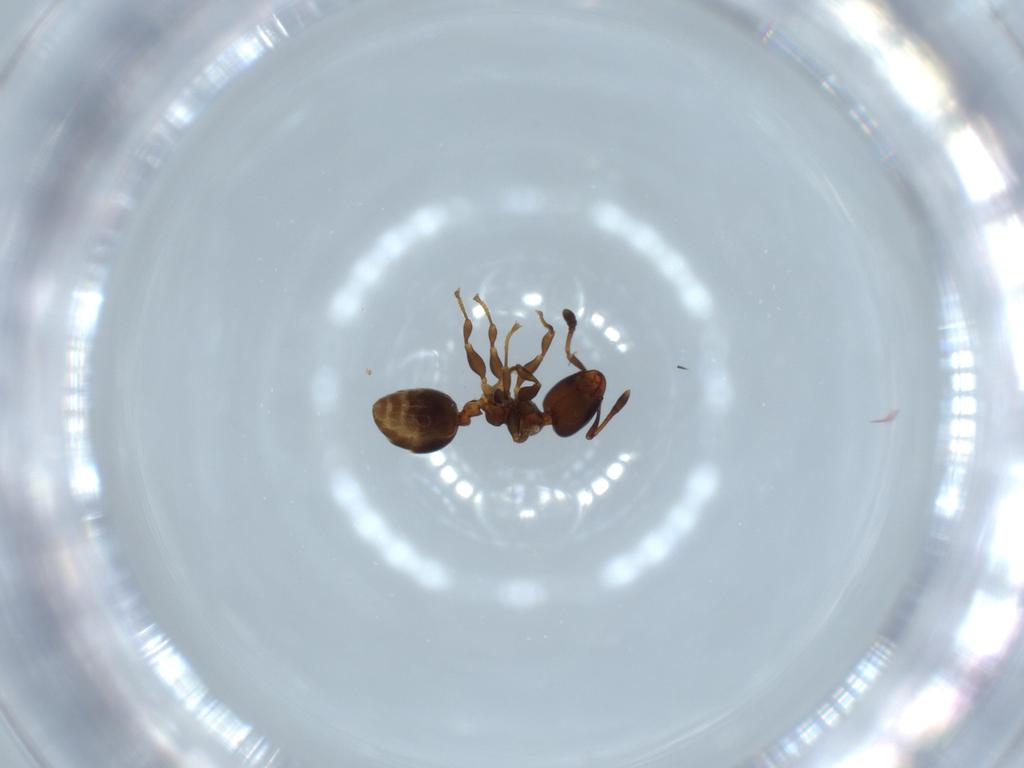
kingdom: Animalia
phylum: Arthropoda
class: Insecta
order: Hymenoptera
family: Formicidae
